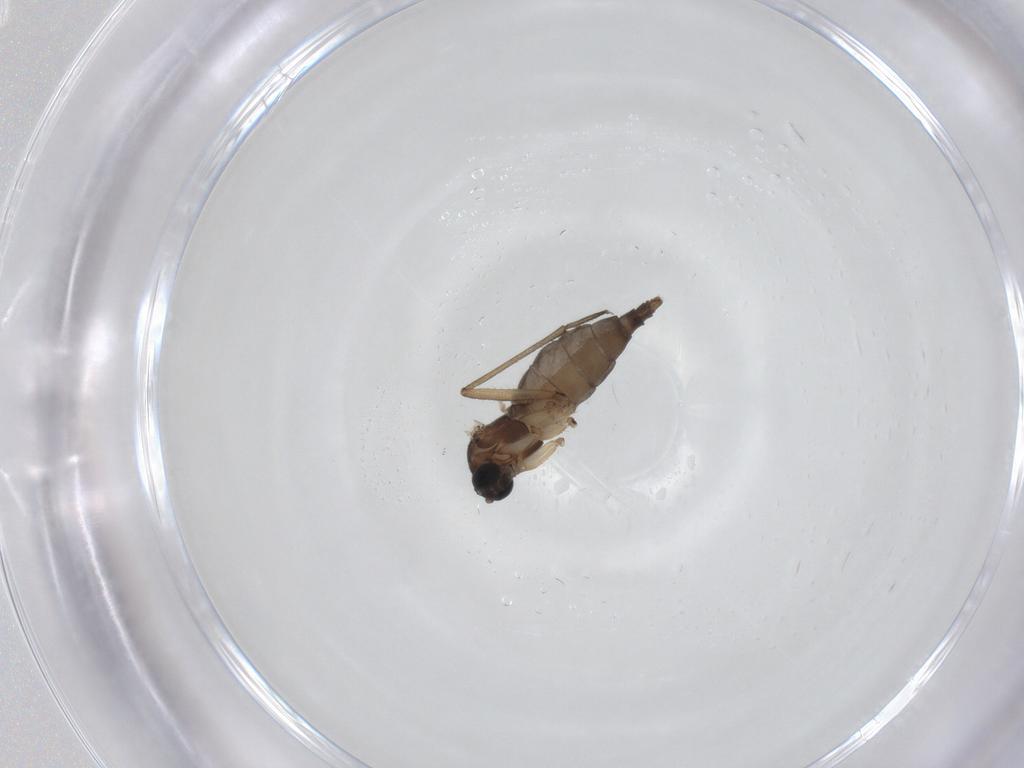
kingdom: Animalia
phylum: Arthropoda
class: Insecta
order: Diptera
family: Sciaridae
